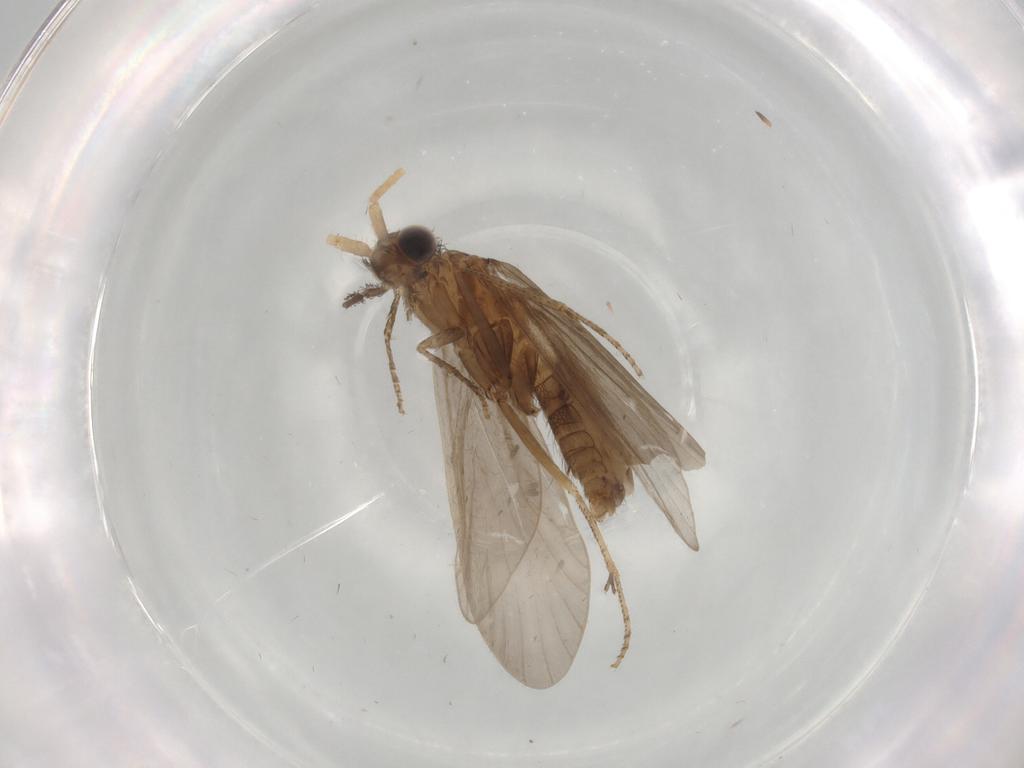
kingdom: Animalia
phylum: Arthropoda
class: Insecta
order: Trichoptera
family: Helicopsychidae
